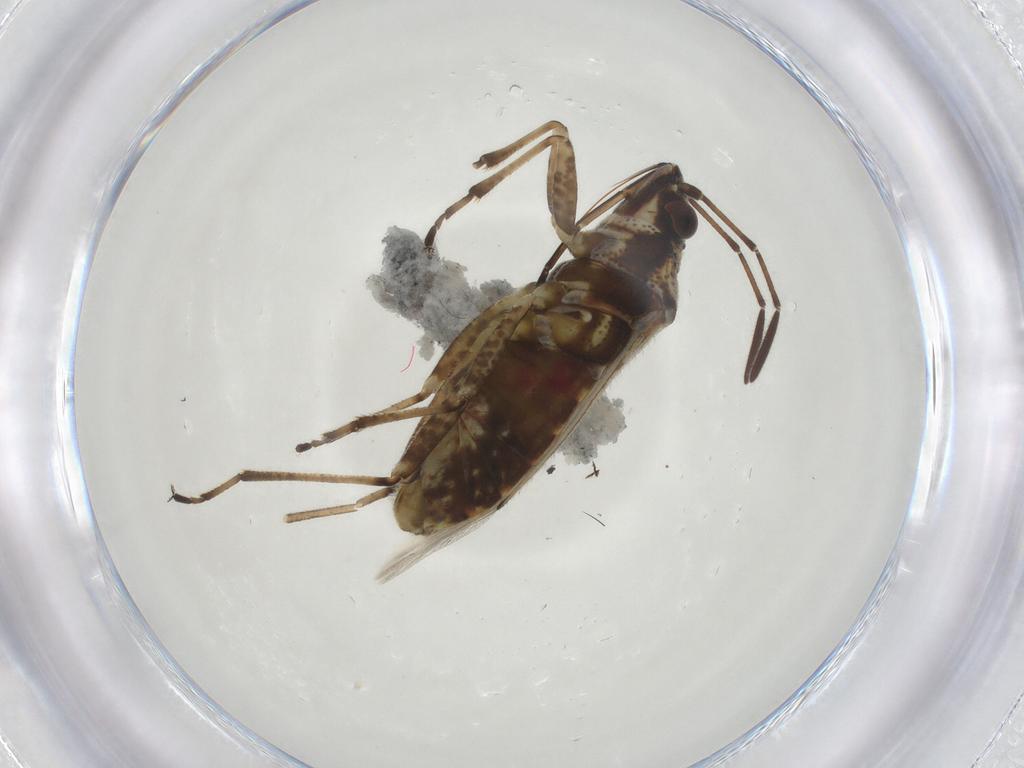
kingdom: Animalia
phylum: Arthropoda
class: Insecta
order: Hemiptera
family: Lygaeidae
